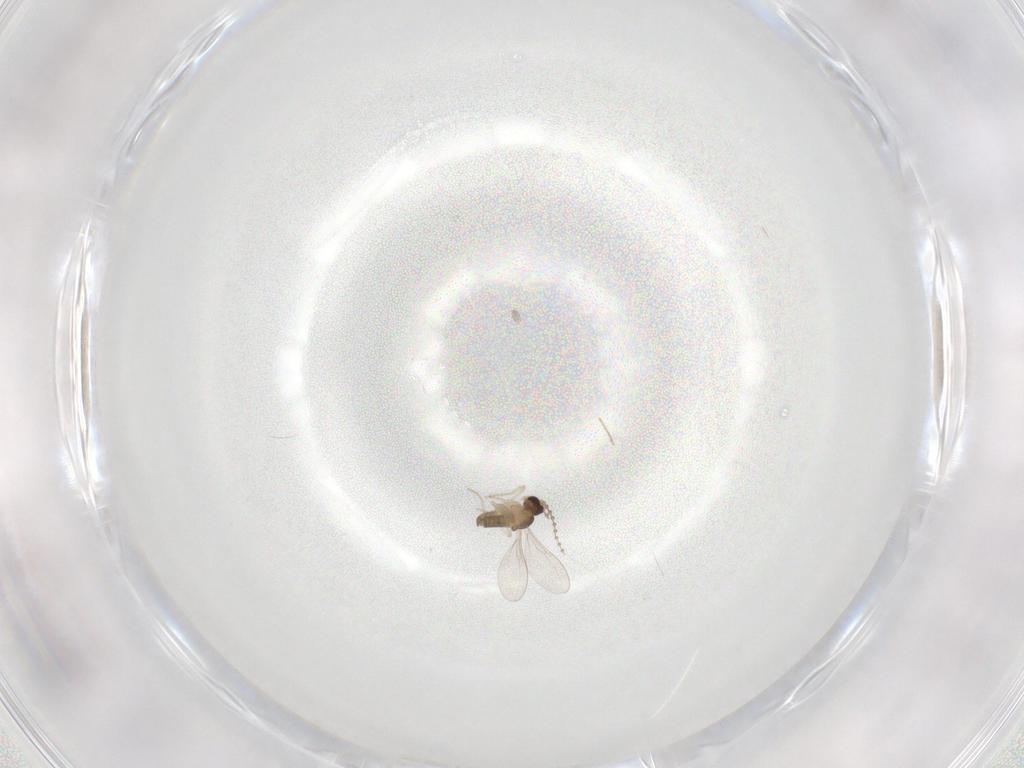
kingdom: Animalia
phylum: Arthropoda
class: Insecta
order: Diptera
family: Cecidomyiidae
